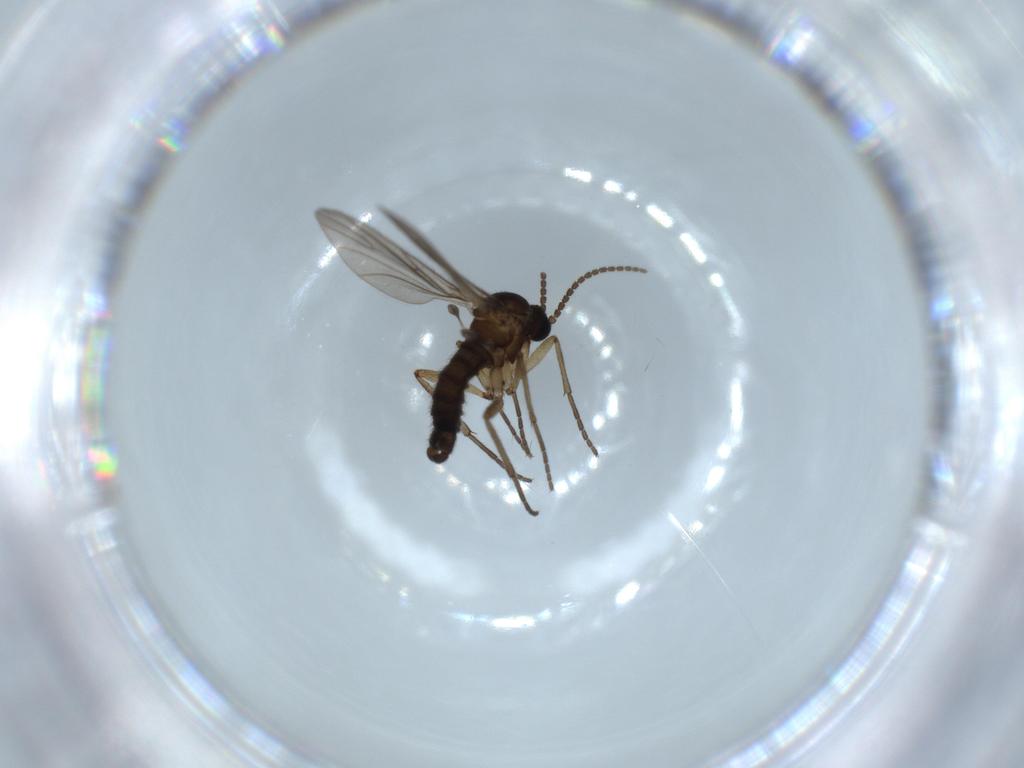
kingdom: Animalia
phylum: Arthropoda
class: Insecta
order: Diptera
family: Sciaridae
